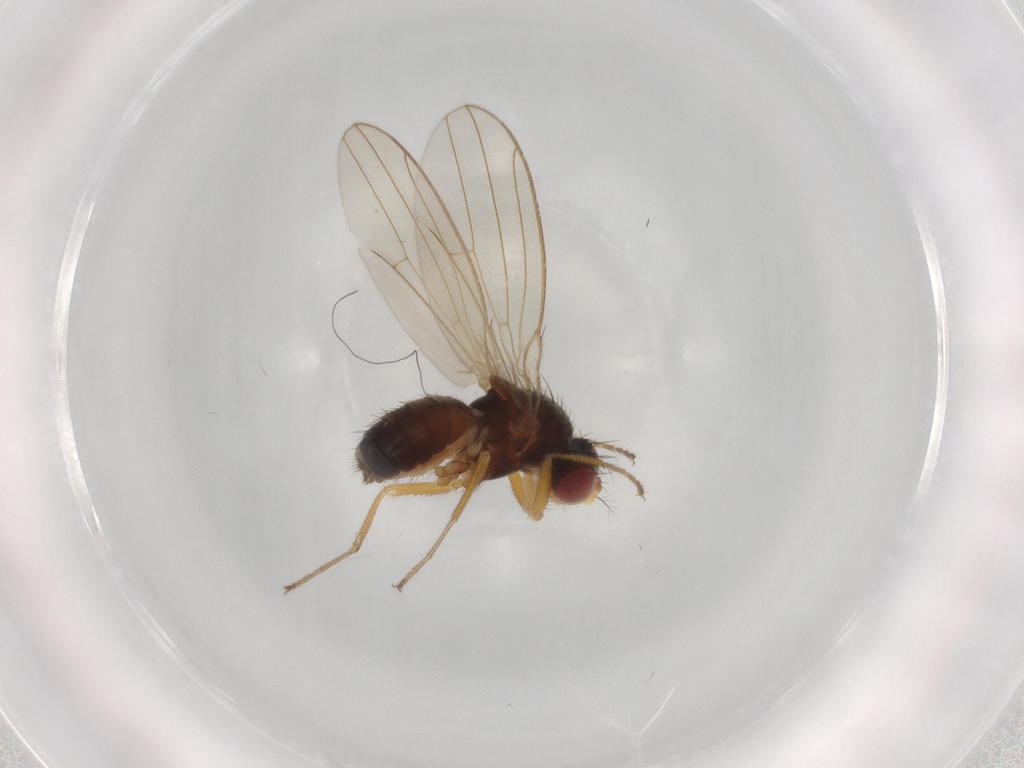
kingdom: Animalia
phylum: Arthropoda
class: Insecta
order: Diptera
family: Drosophilidae
